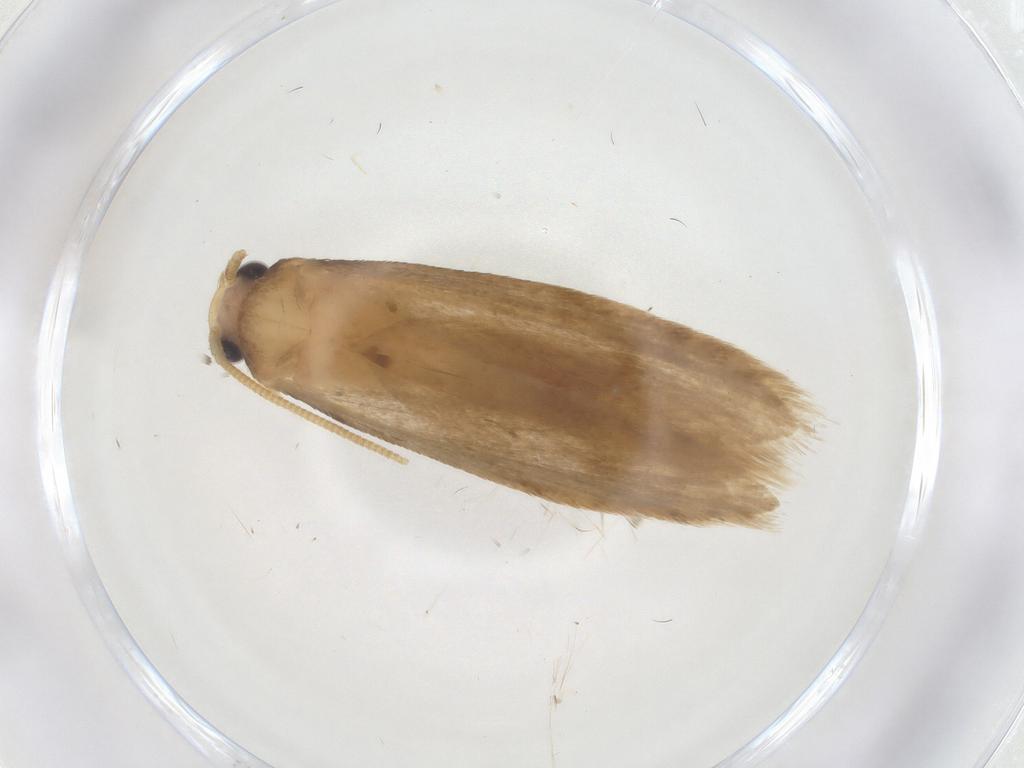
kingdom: Animalia
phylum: Arthropoda
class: Insecta
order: Lepidoptera
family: Tineidae
